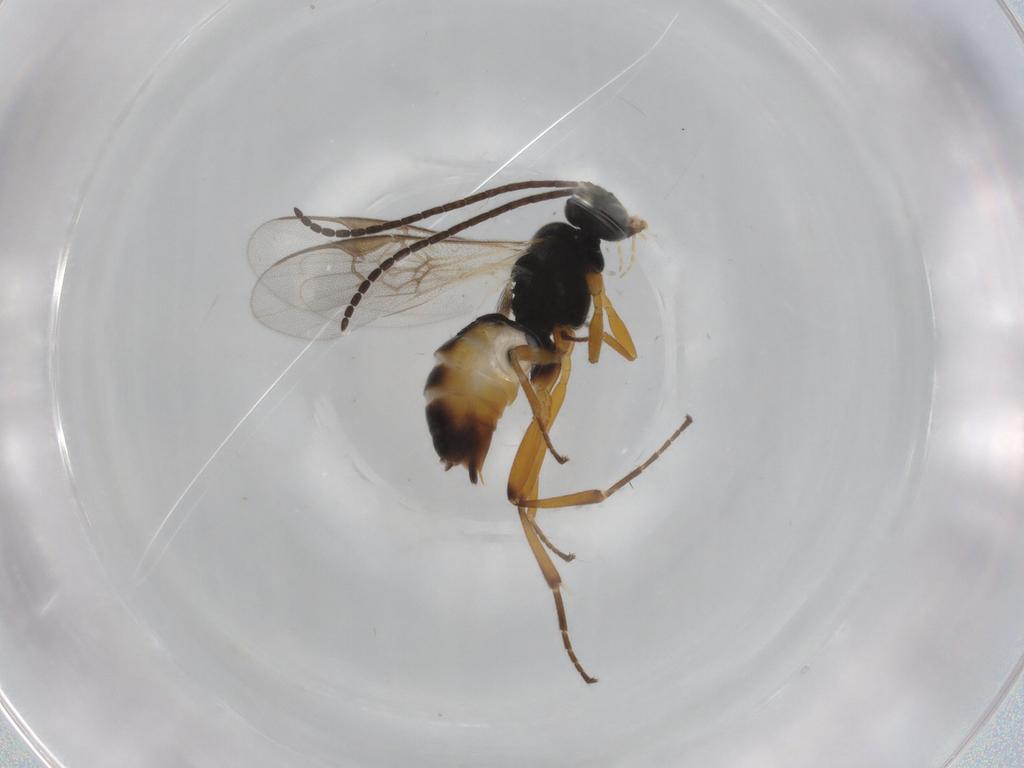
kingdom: Animalia
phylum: Arthropoda
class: Insecta
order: Hymenoptera
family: Braconidae
